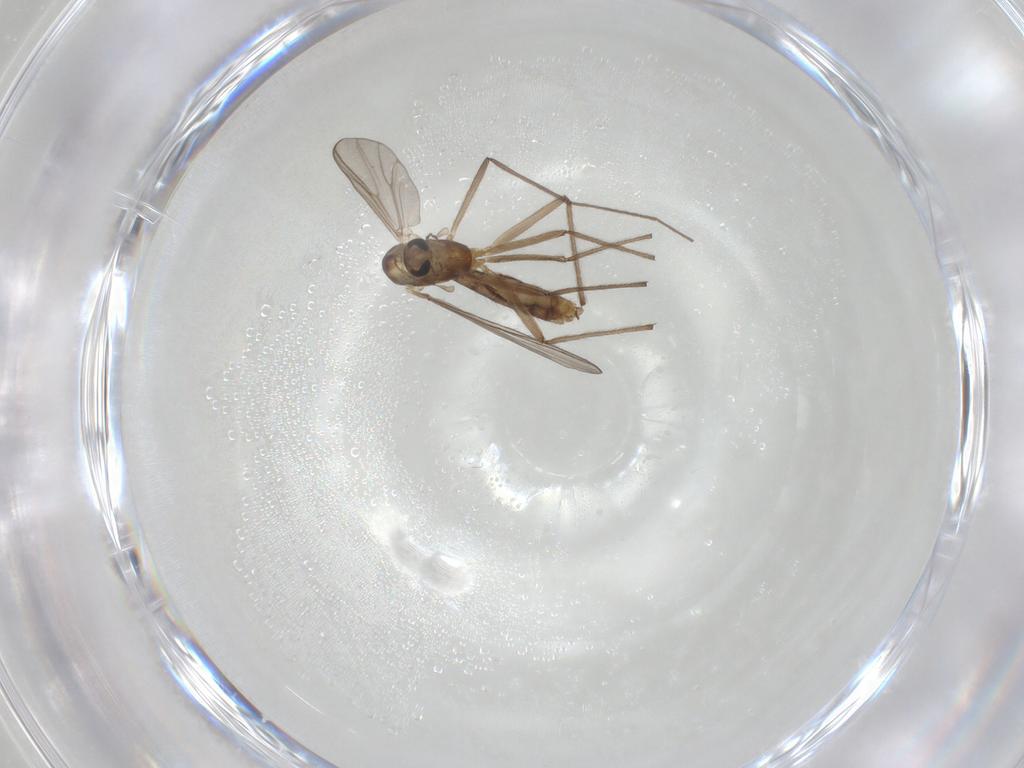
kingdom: Animalia
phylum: Arthropoda
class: Insecta
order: Diptera
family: Chironomidae
